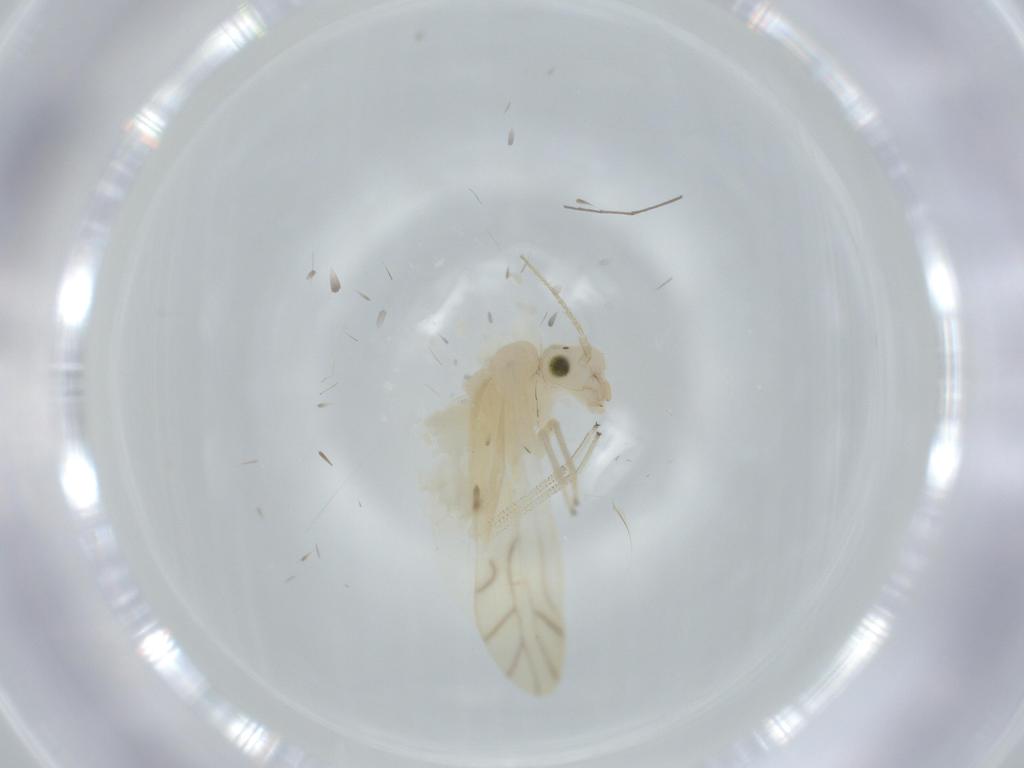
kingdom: Animalia
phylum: Arthropoda
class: Insecta
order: Psocodea
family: Caeciliusidae
